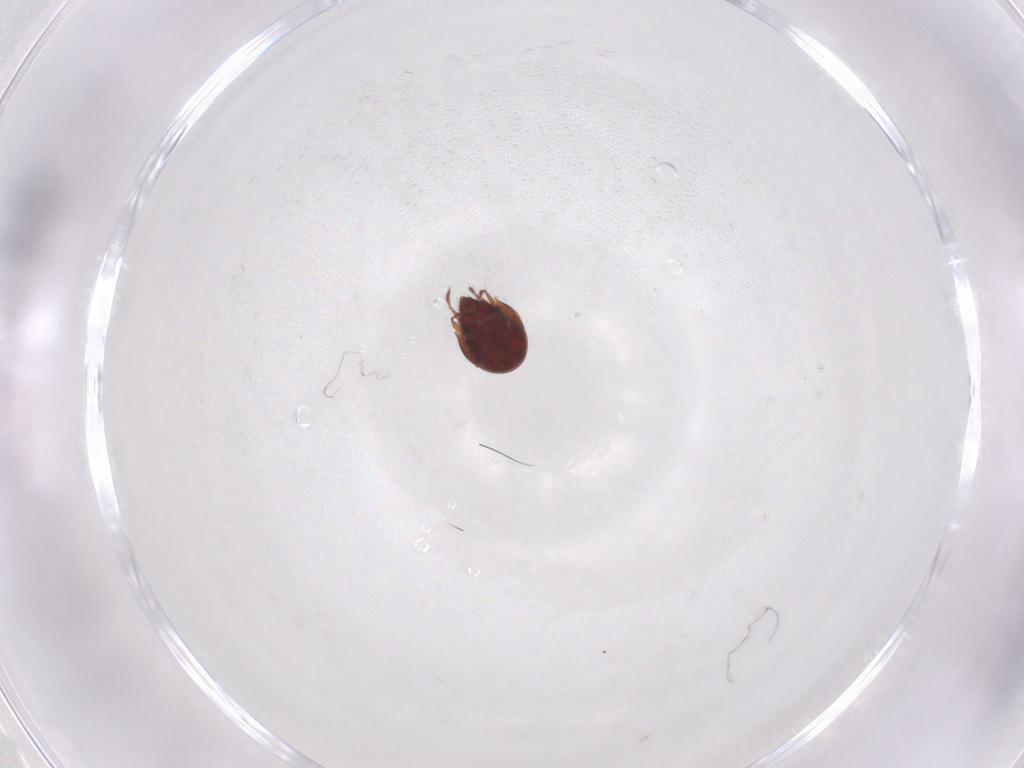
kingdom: Animalia
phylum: Arthropoda
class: Arachnida
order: Sarcoptiformes
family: Ceratozetidae
